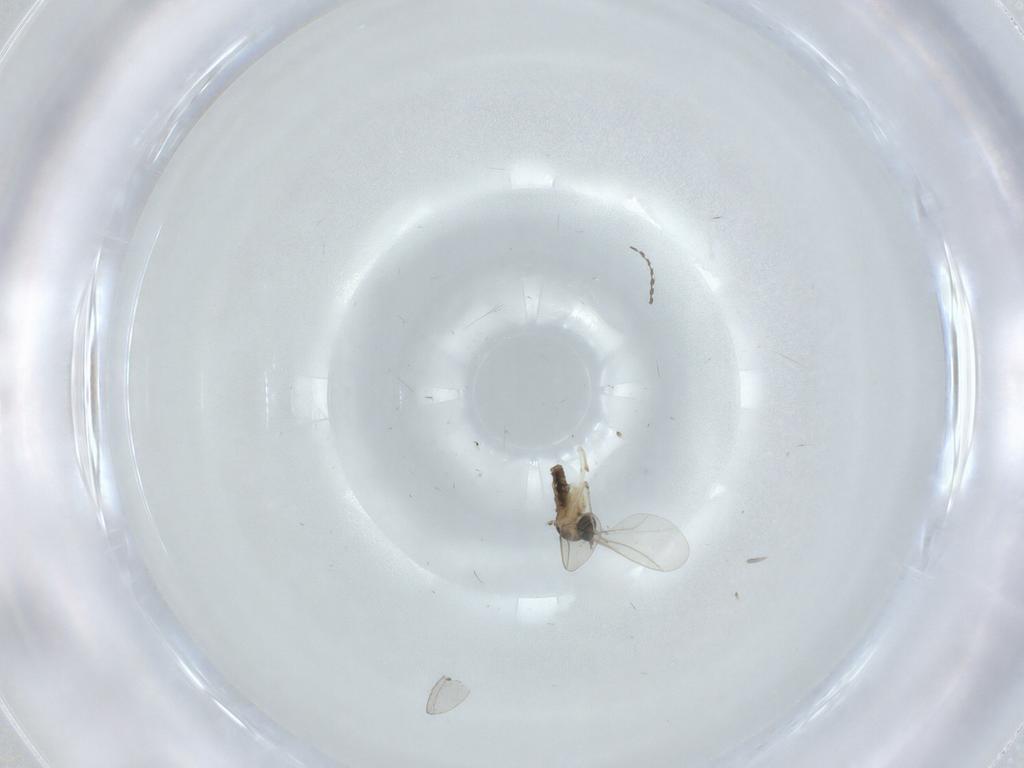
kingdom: Animalia
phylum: Arthropoda
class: Insecta
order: Diptera
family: Cecidomyiidae
